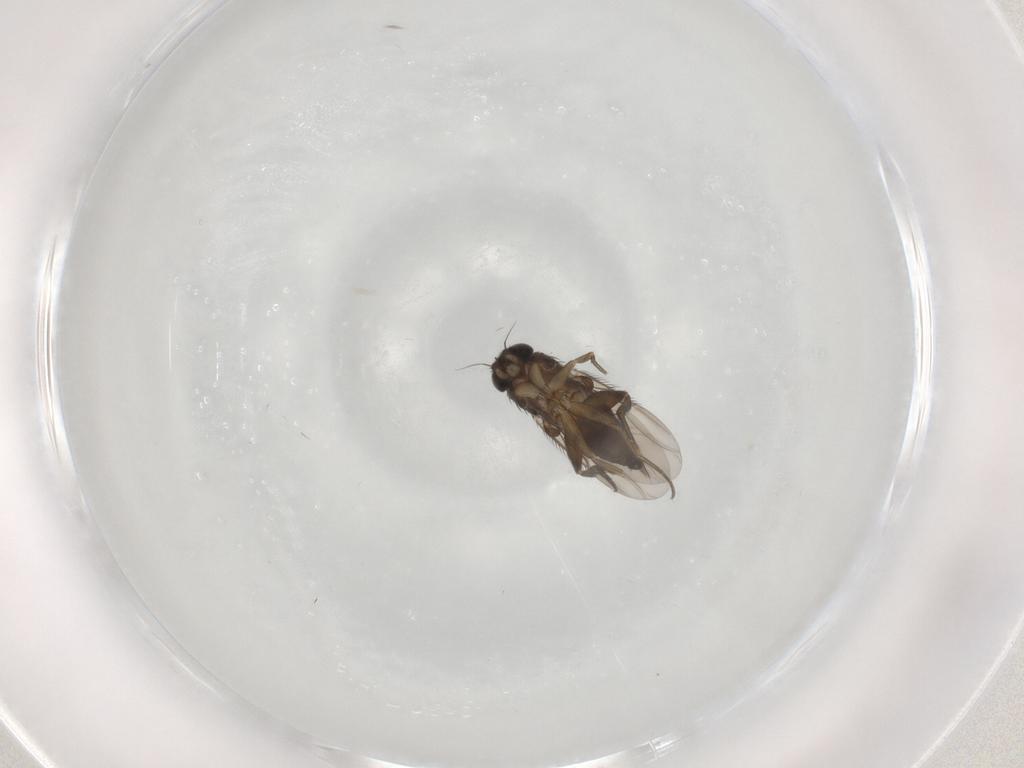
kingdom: Animalia
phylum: Arthropoda
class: Insecta
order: Diptera
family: Phoridae
